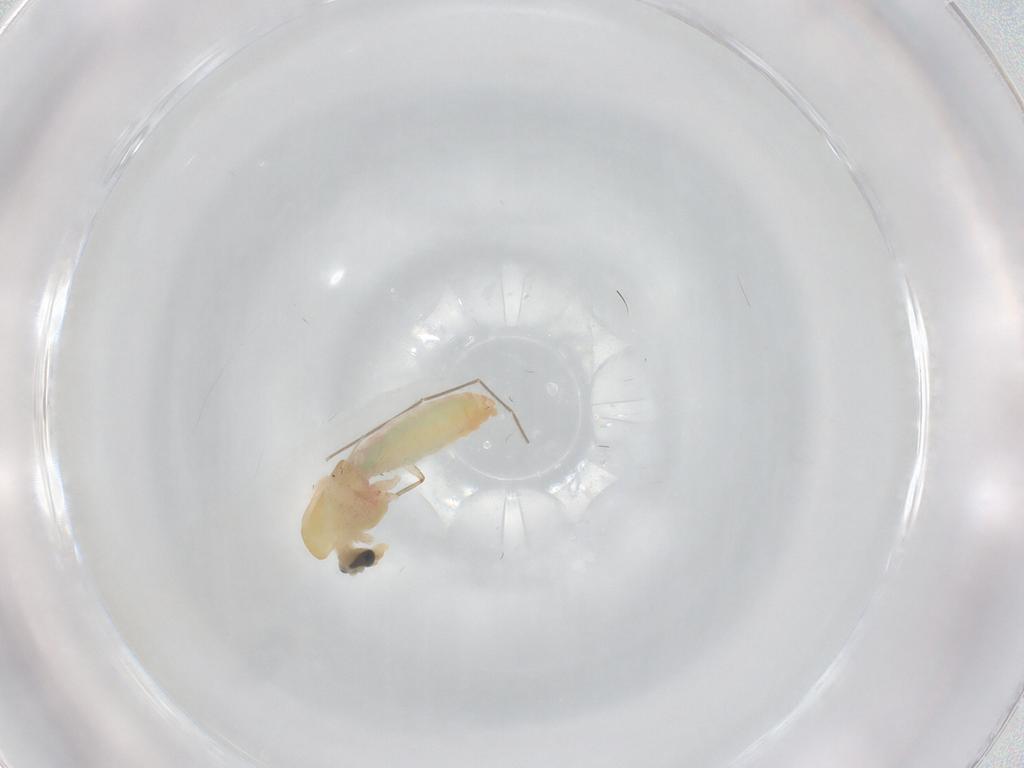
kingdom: Animalia
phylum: Arthropoda
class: Insecta
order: Diptera
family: Chironomidae
